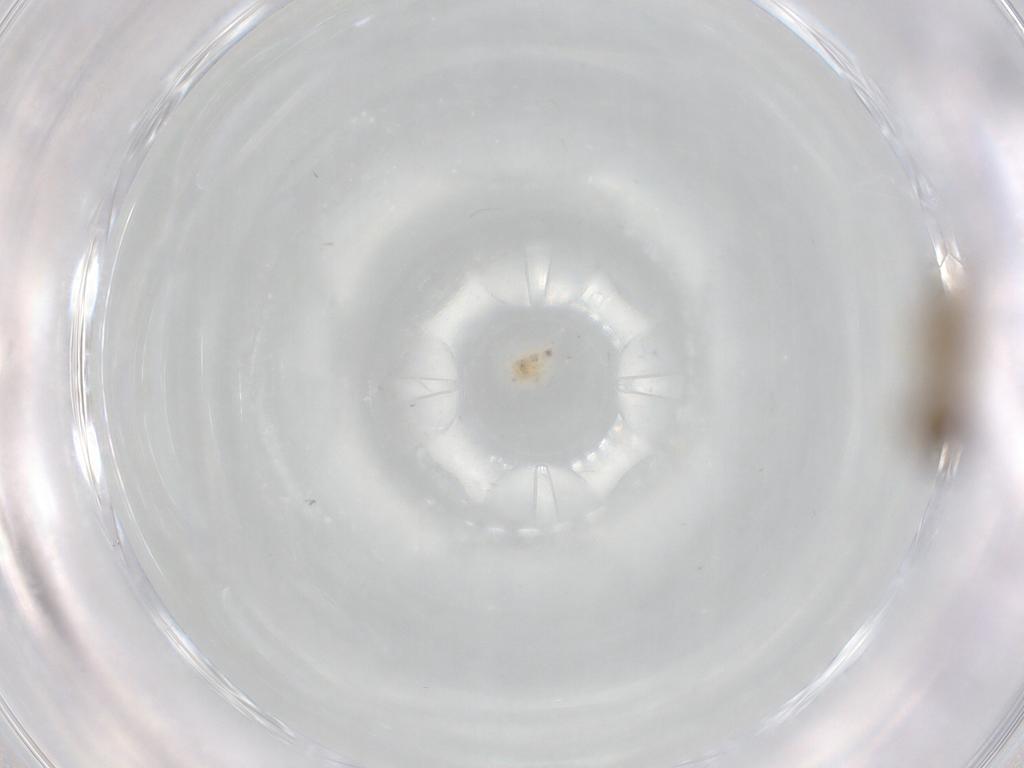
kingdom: Animalia
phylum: Arthropoda
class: Insecta
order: Diptera
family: Ceratopogonidae
